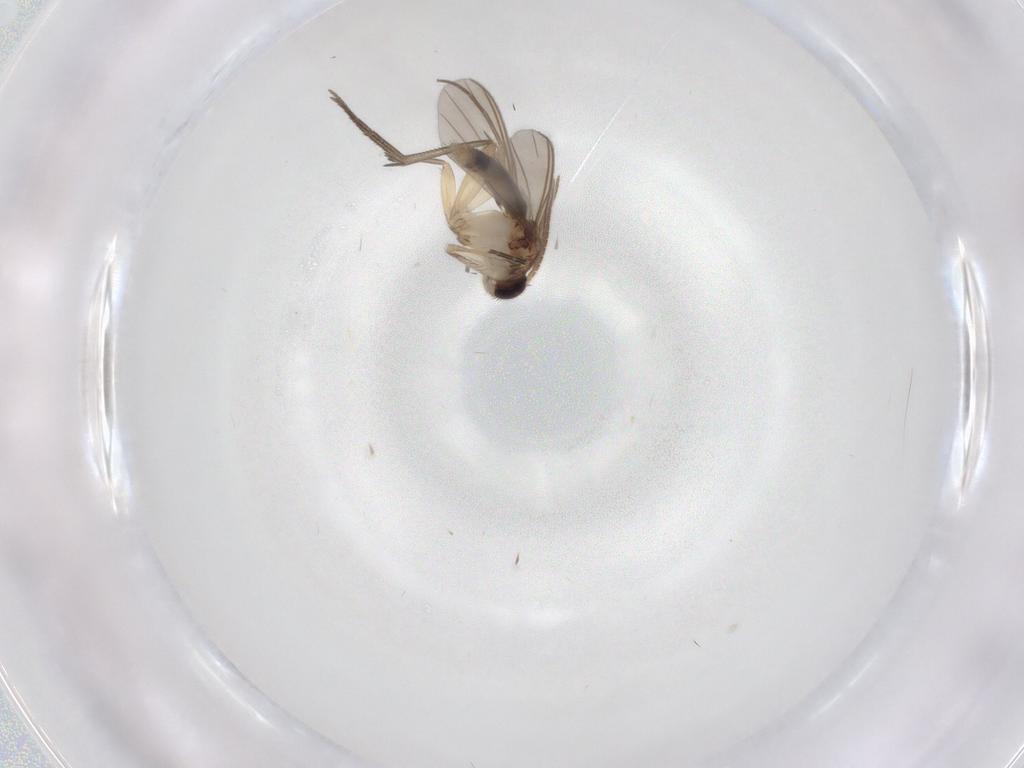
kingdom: Animalia
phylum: Arthropoda
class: Insecta
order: Diptera
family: Mycetophilidae
